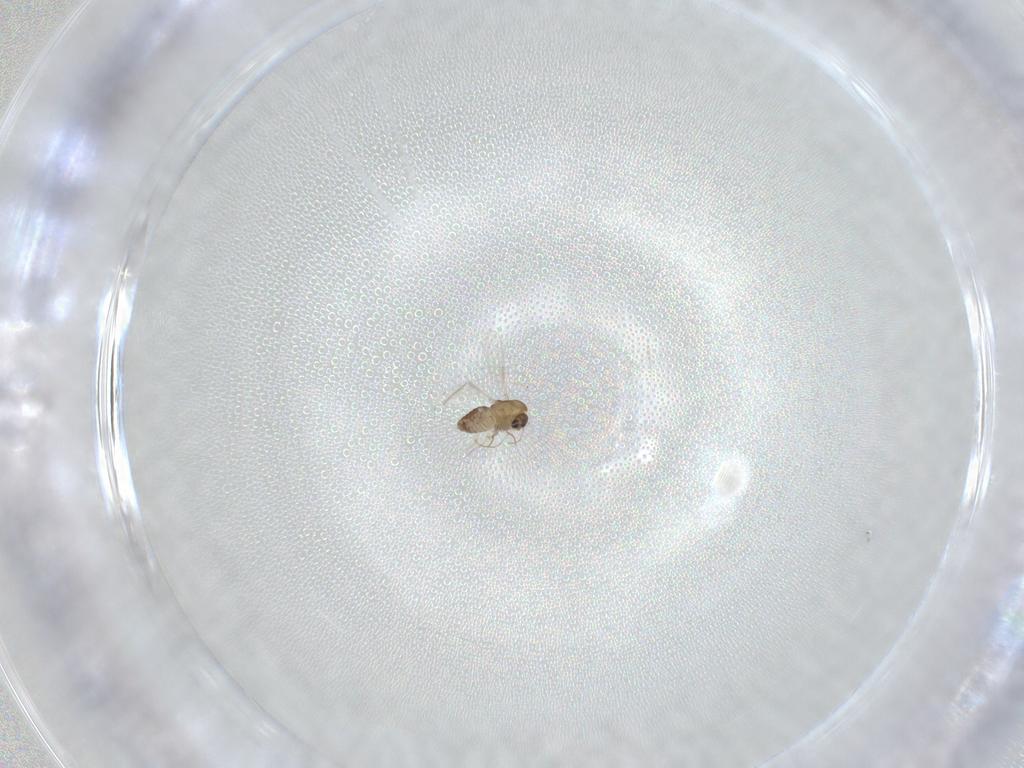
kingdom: Animalia
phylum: Arthropoda
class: Insecta
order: Diptera
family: Chironomidae
